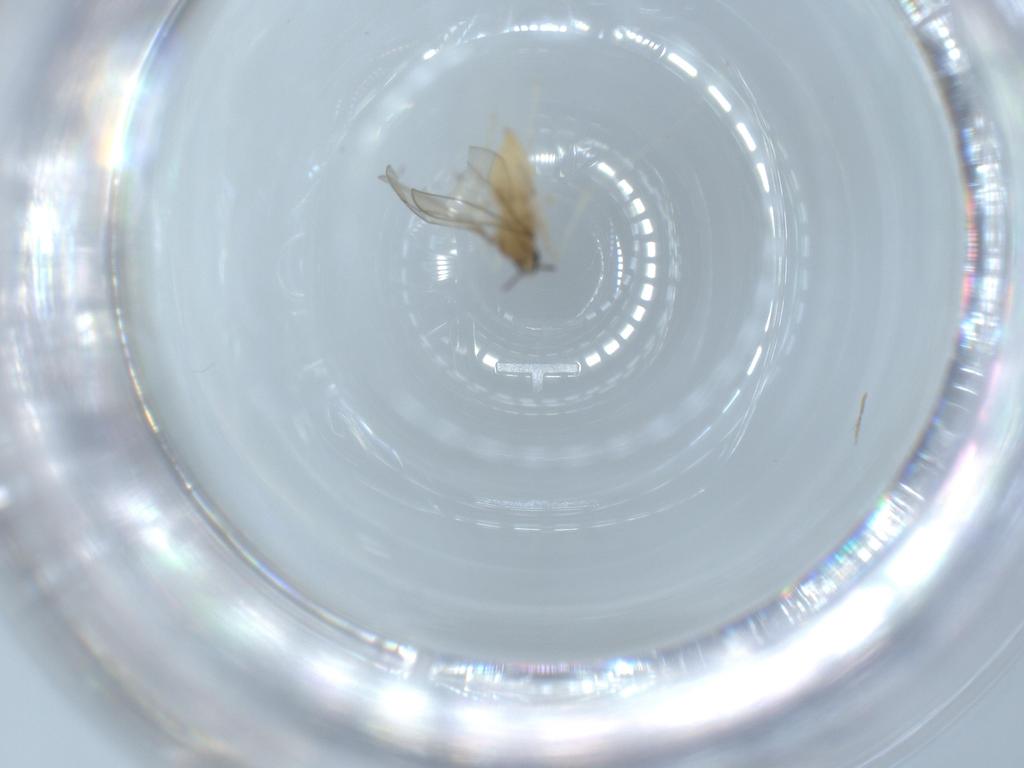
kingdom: Animalia
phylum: Arthropoda
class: Insecta
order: Diptera
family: Cecidomyiidae
